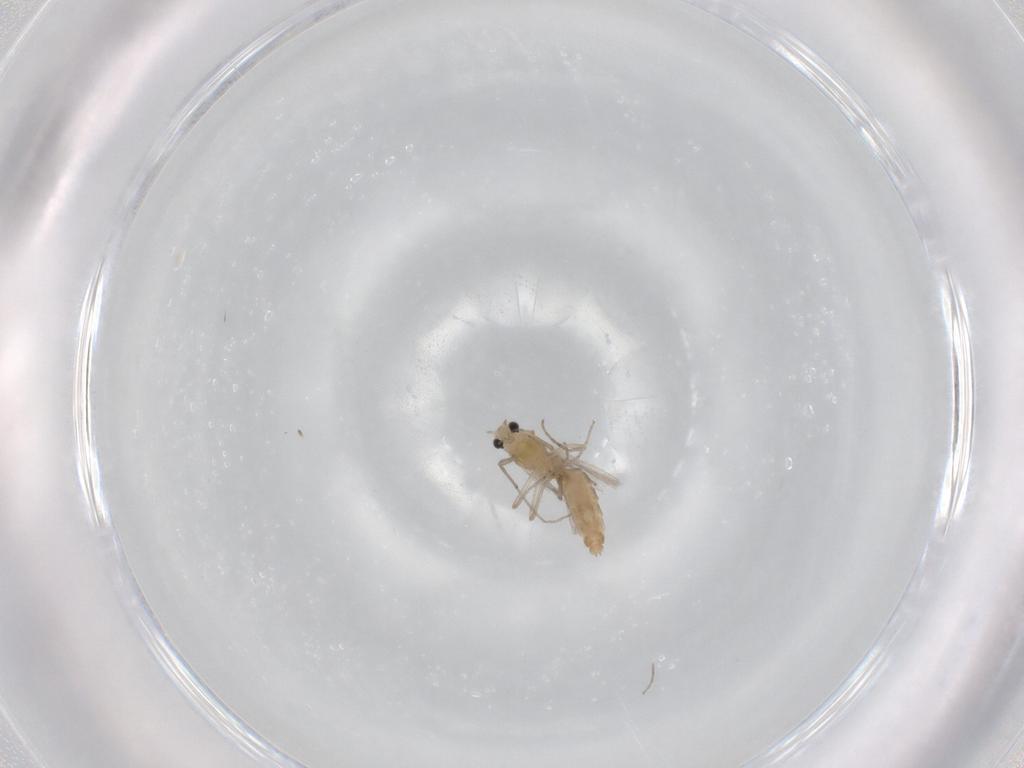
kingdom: Animalia
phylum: Arthropoda
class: Insecta
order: Diptera
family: Chironomidae
